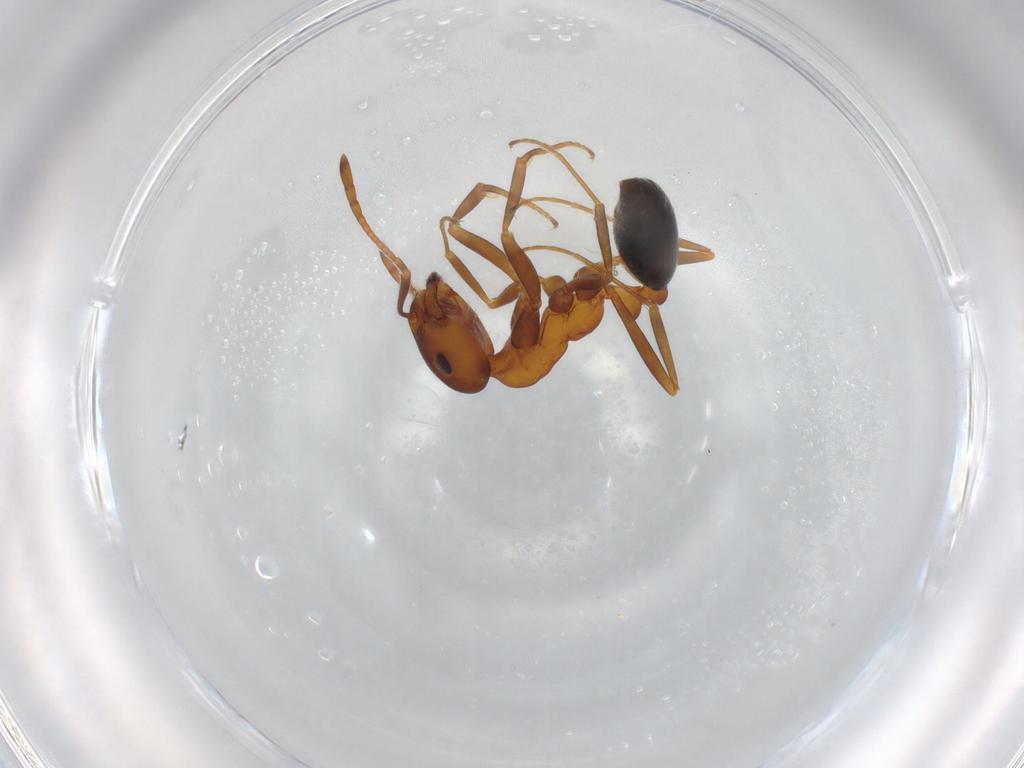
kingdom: Animalia
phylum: Arthropoda
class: Insecta
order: Hymenoptera
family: Formicidae
